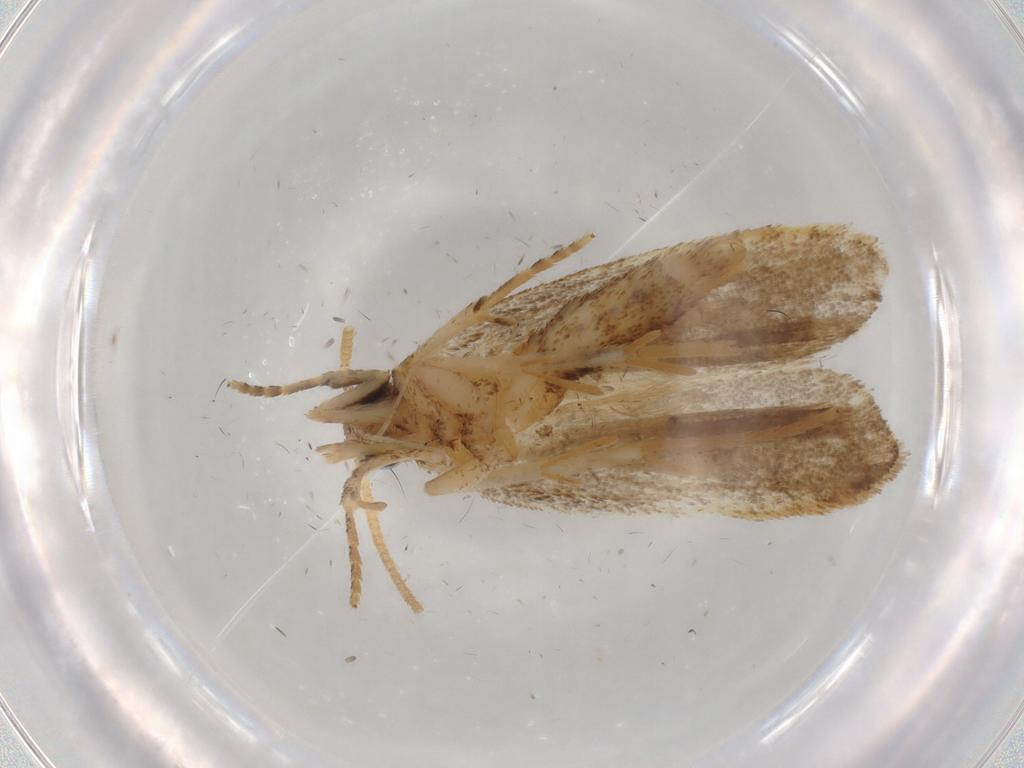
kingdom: Animalia
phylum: Arthropoda
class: Insecta
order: Lepidoptera
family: Autostichidae
